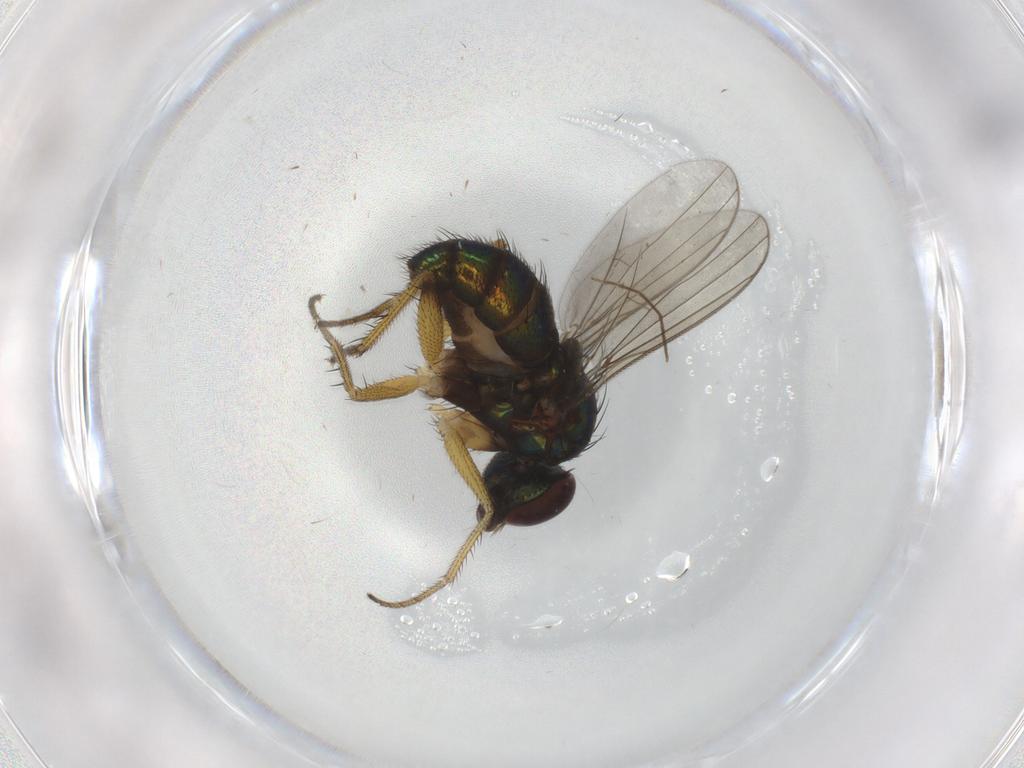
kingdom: Animalia
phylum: Arthropoda
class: Insecta
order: Diptera
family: Dolichopodidae
